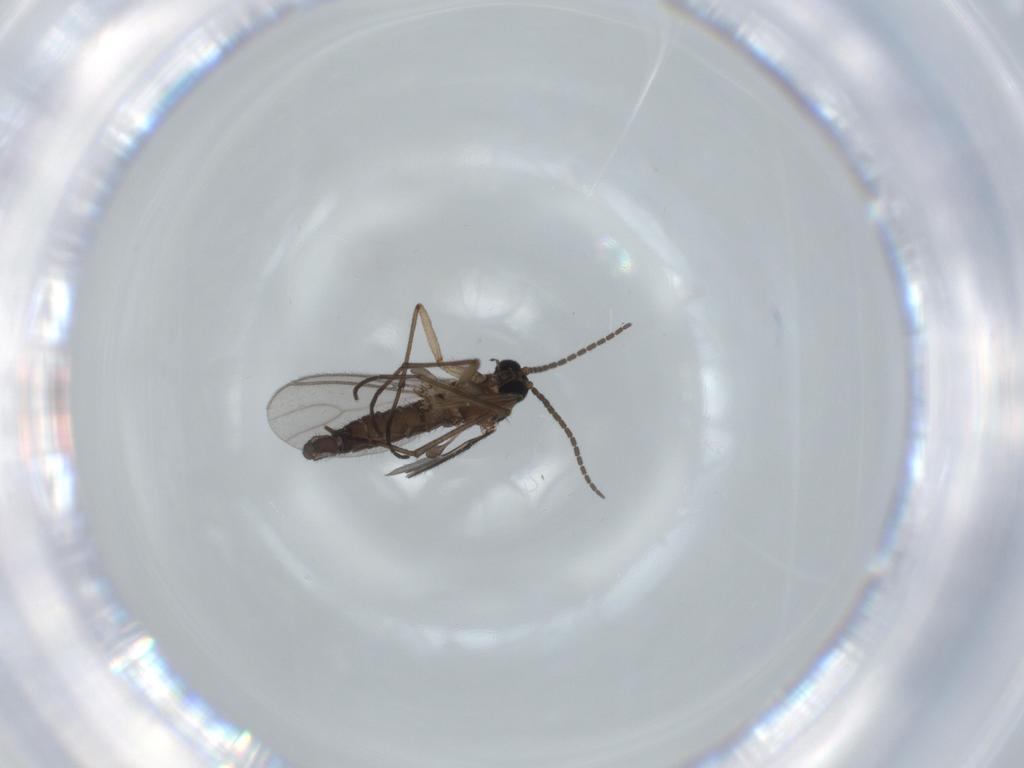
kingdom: Animalia
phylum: Arthropoda
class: Insecta
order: Diptera
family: Sciaridae
